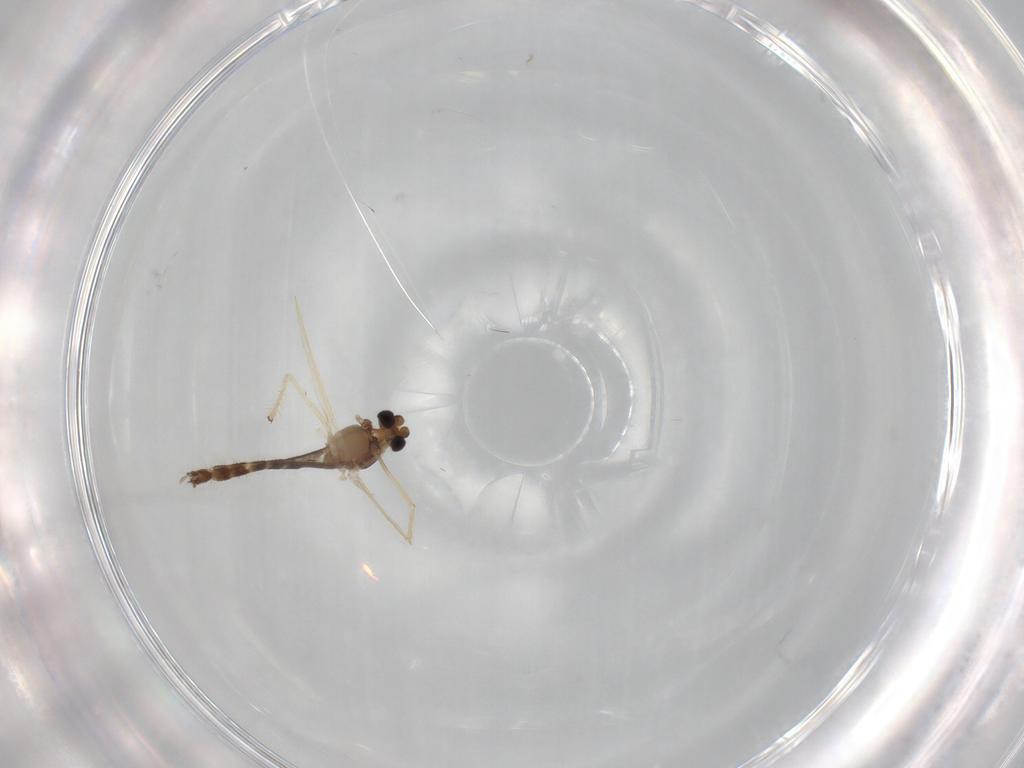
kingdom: Animalia
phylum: Arthropoda
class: Insecta
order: Diptera
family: Chironomidae
